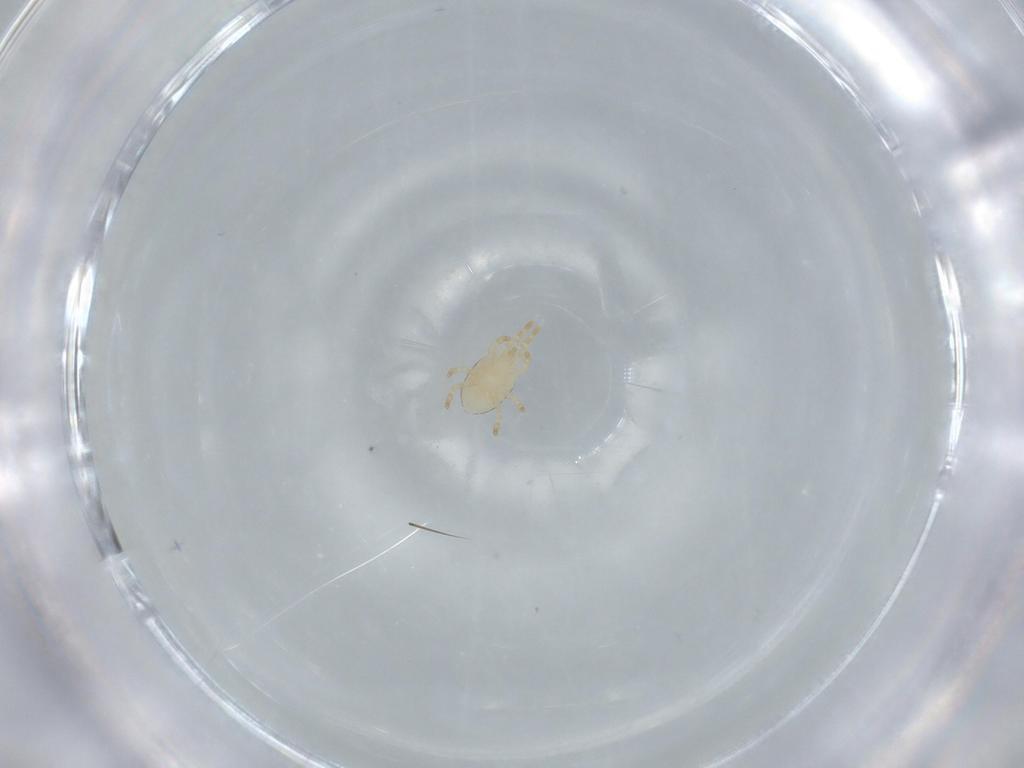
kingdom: Animalia
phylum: Arthropoda
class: Arachnida
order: Mesostigmata
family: Laelapidae
